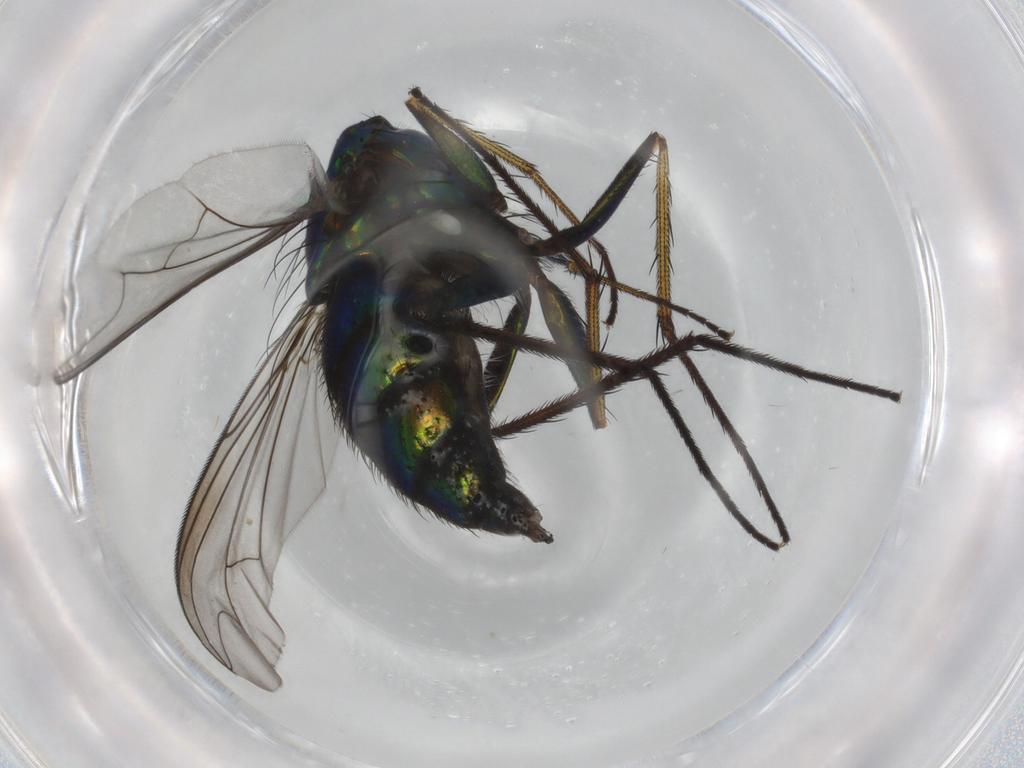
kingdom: Animalia
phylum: Arthropoda
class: Insecta
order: Diptera
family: Dolichopodidae
